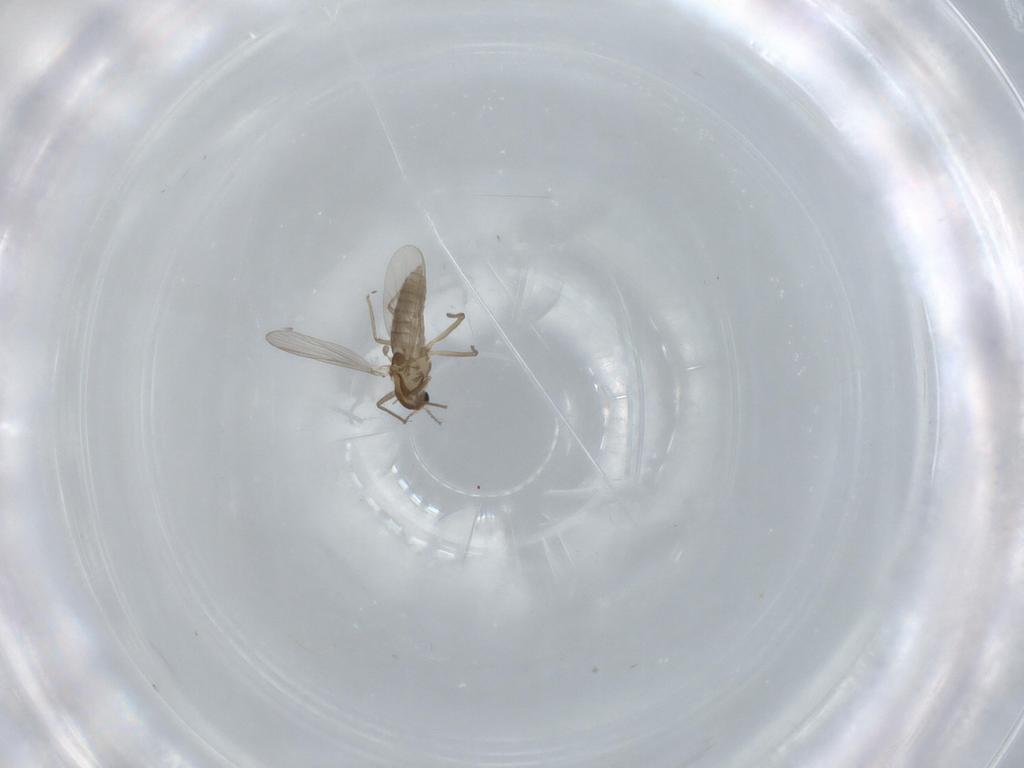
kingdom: Animalia
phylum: Arthropoda
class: Insecta
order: Diptera
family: Chironomidae
